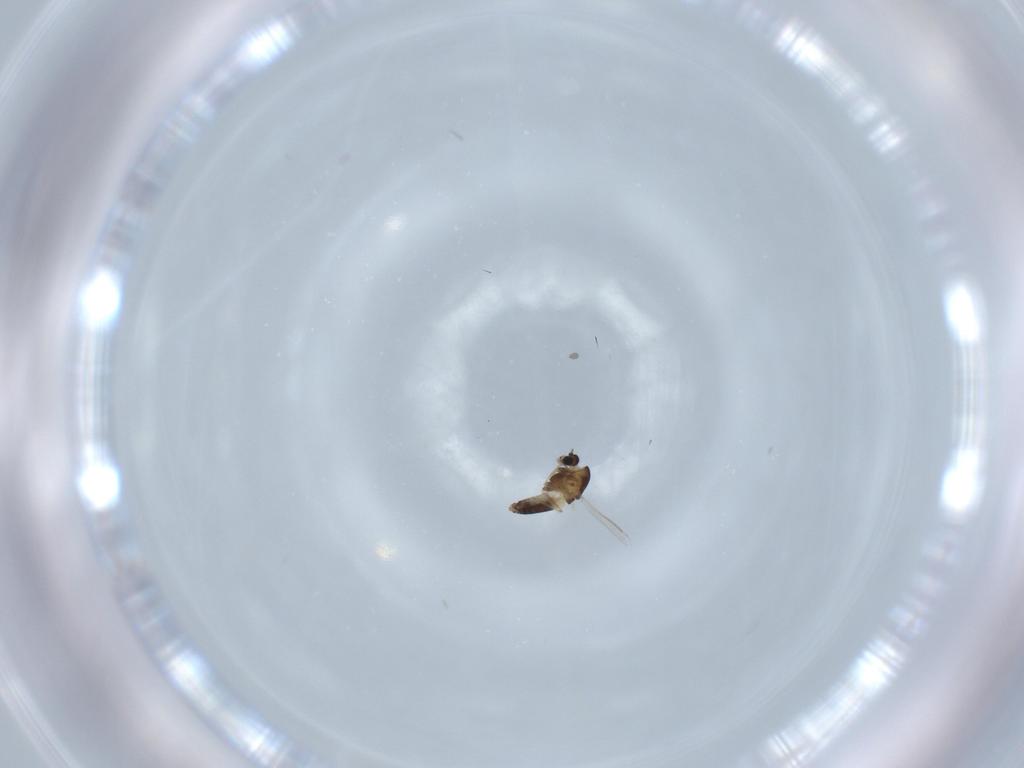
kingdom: Animalia
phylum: Arthropoda
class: Insecta
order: Diptera
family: Chironomidae
